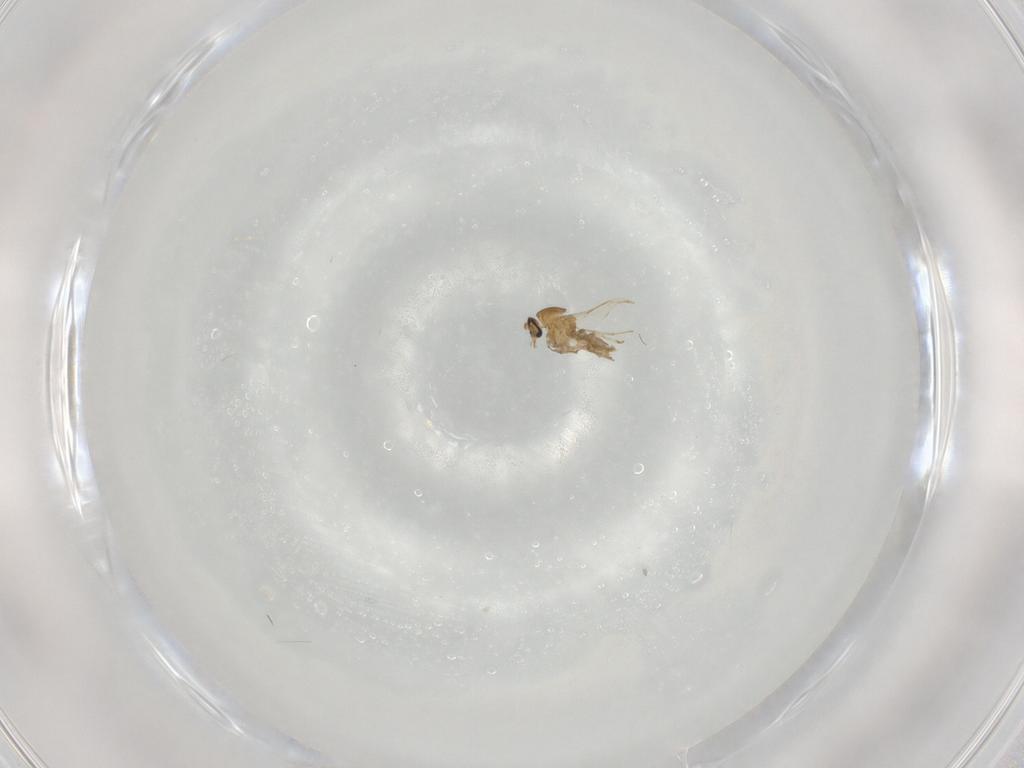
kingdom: Animalia
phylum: Arthropoda
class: Insecta
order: Diptera
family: Ceratopogonidae
